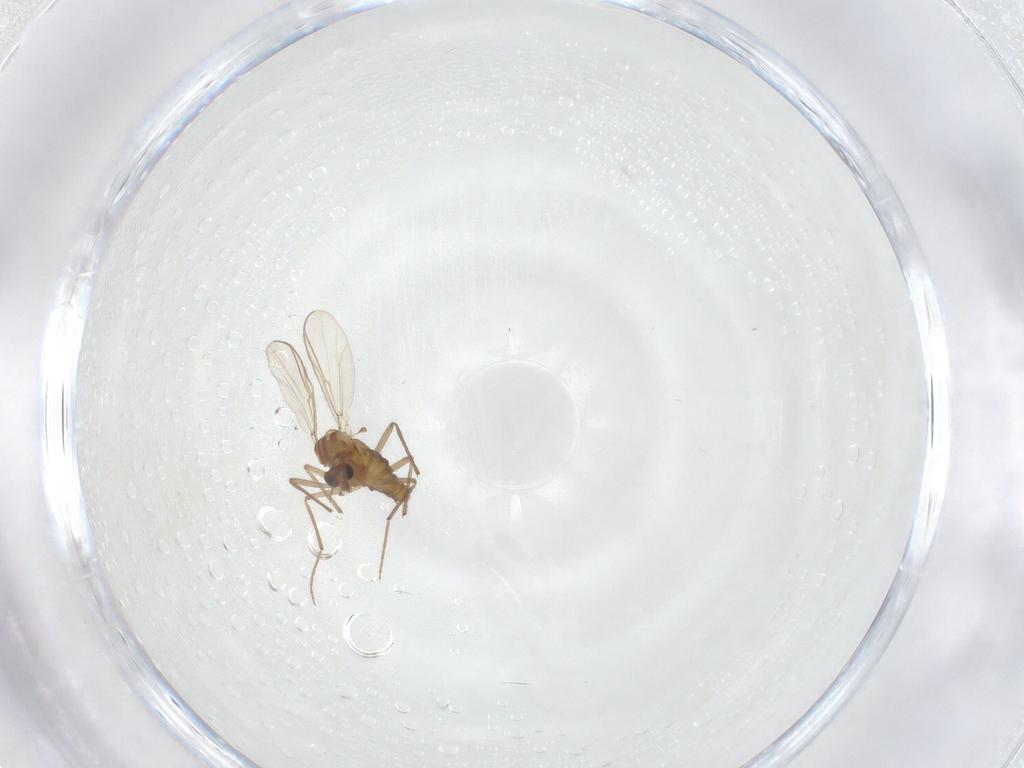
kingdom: Animalia
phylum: Arthropoda
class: Insecta
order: Diptera
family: Chironomidae
